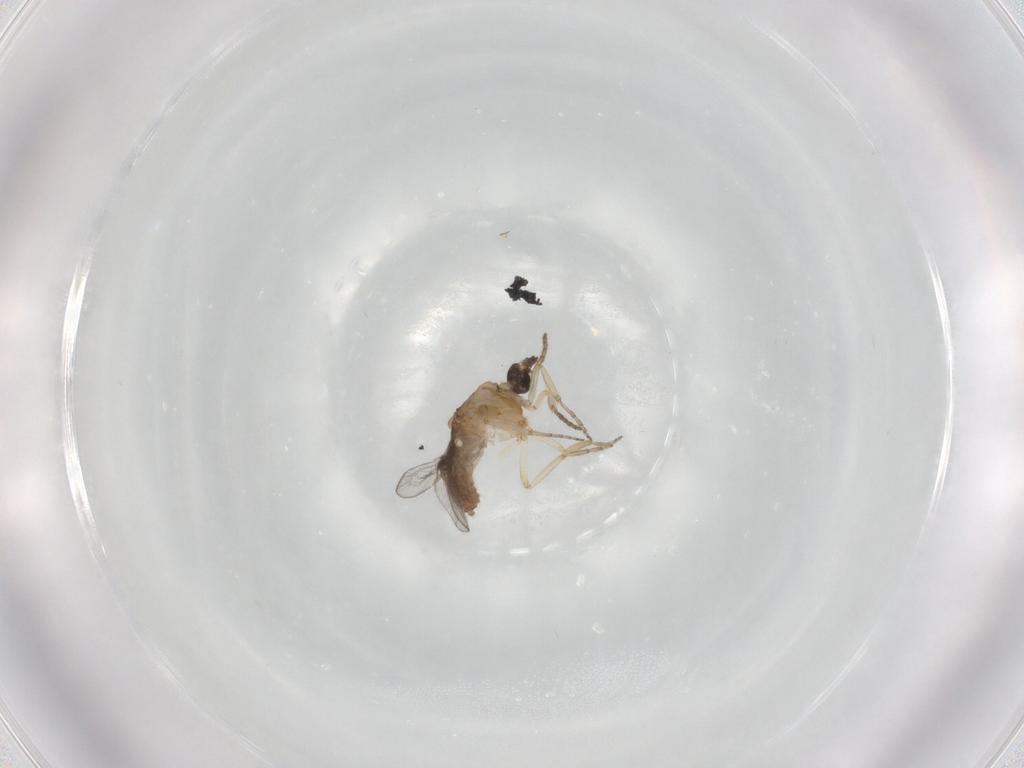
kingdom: Animalia
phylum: Arthropoda
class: Insecta
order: Diptera
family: Ceratopogonidae
